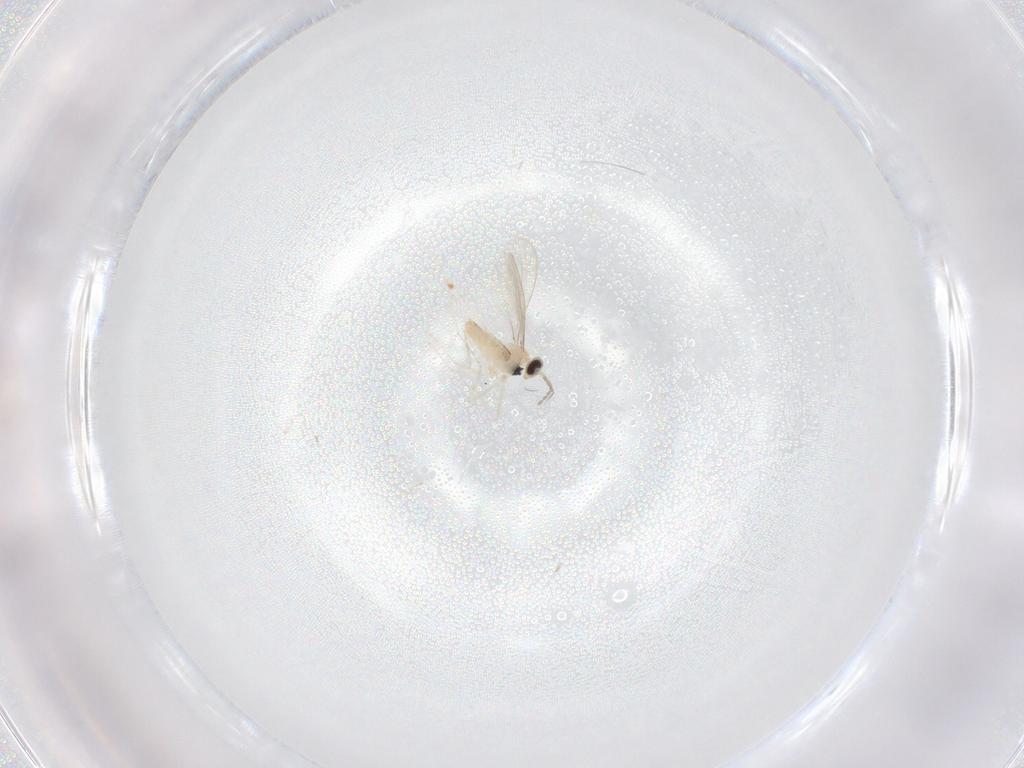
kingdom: Animalia
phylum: Arthropoda
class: Insecta
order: Diptera
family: Cecidomyiidae
